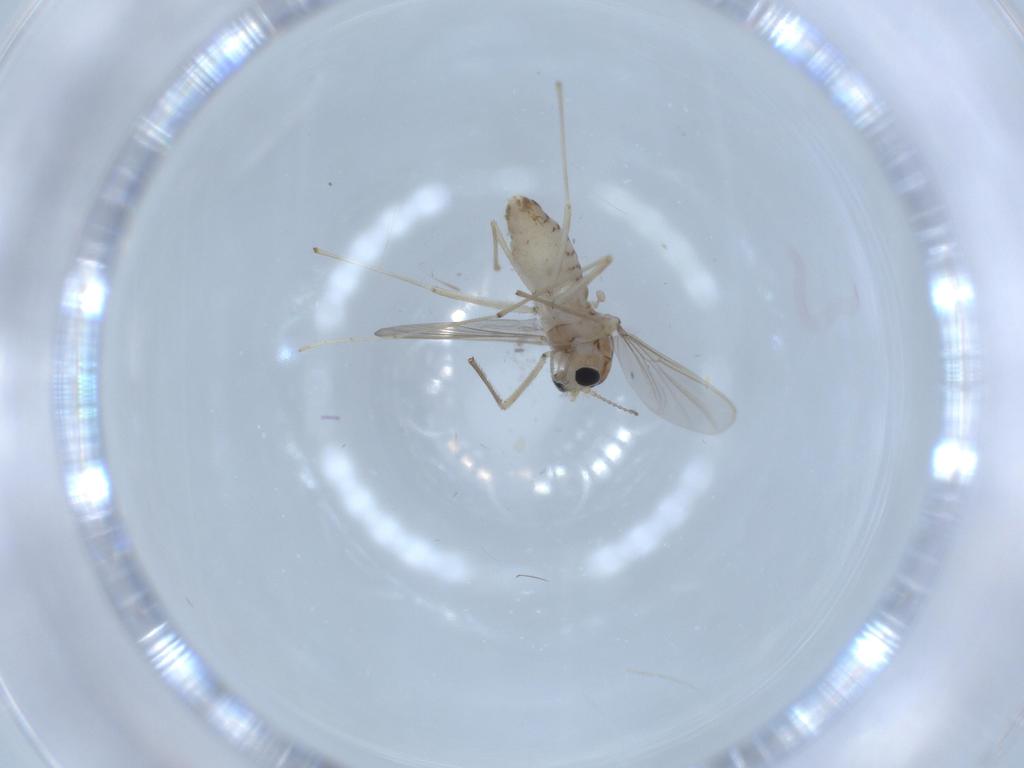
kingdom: Animalia
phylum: Arthropoda
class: Insecta
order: Diptera
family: Chironomidae
